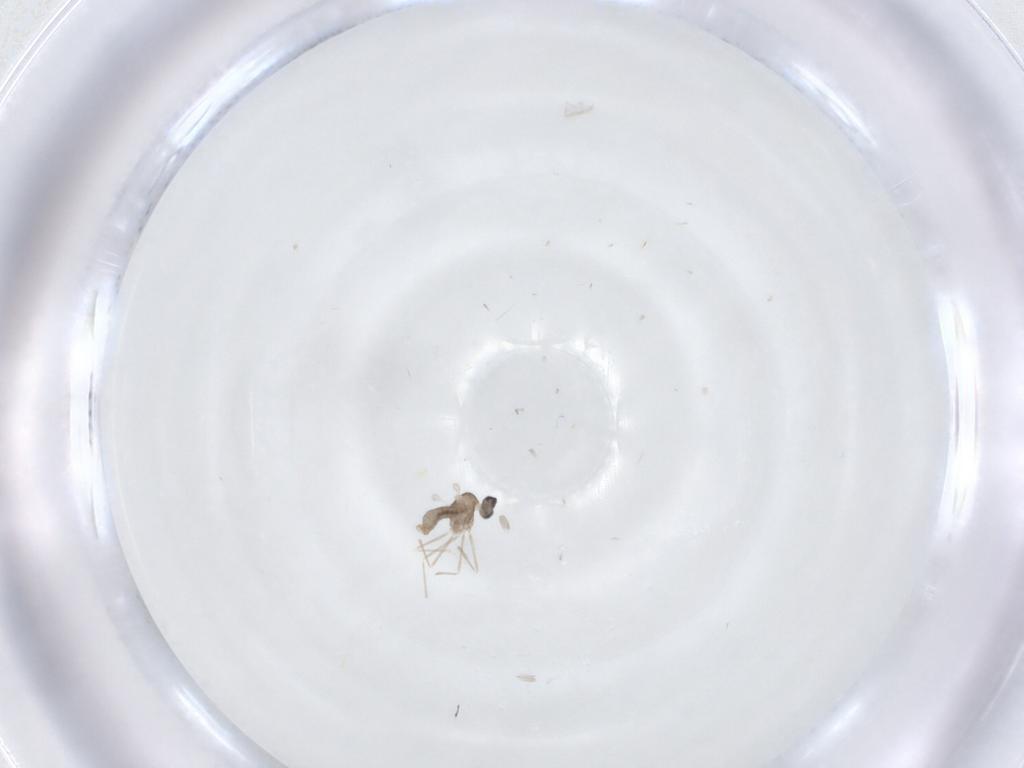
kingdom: Animalia
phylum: Arthropoda
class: Insecta
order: Diptera
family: Cecidomyiidae
